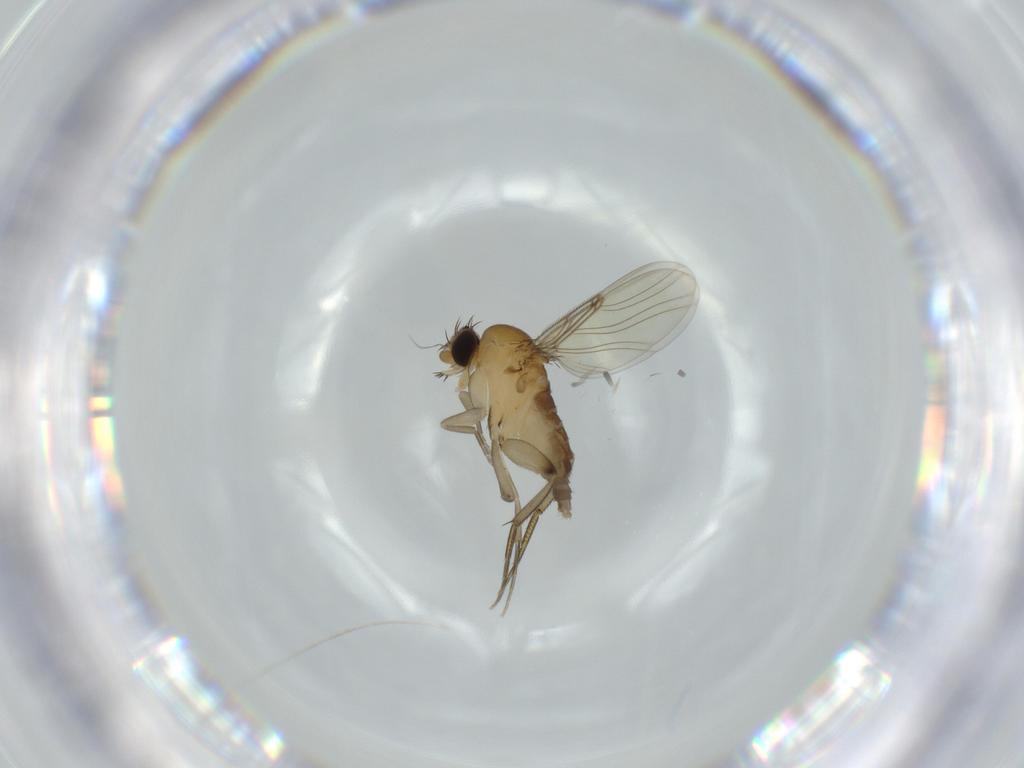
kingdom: Animalia
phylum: Arthropoda
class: Insecta
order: Diptera
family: Phoridae
